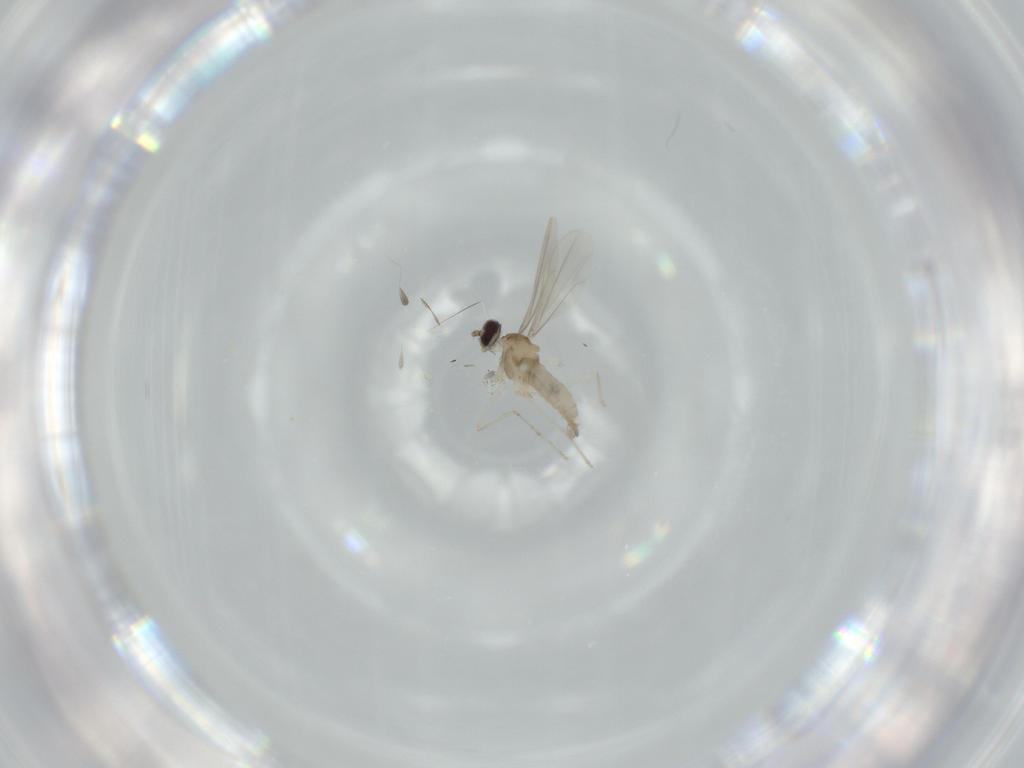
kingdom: Animalia
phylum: Arthropoda
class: Insecta
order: Diptera
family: Cecidomyiidae
